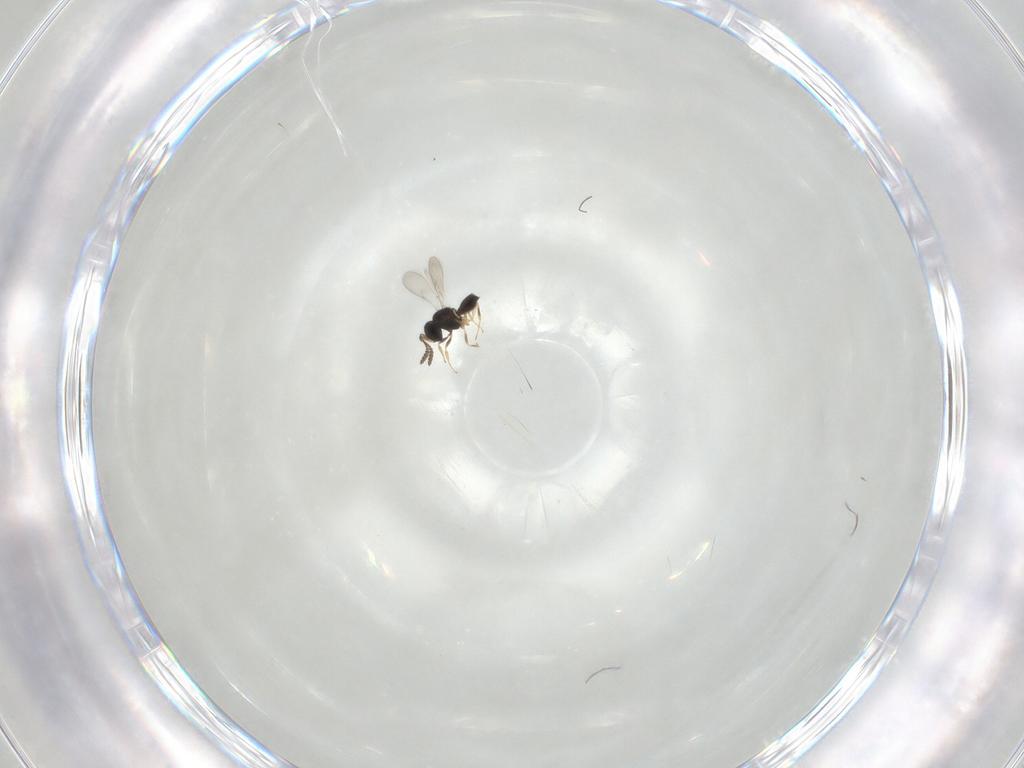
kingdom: Animalia
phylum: Arthropoda
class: Insecta
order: Hymenoptera
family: Scelionidae
